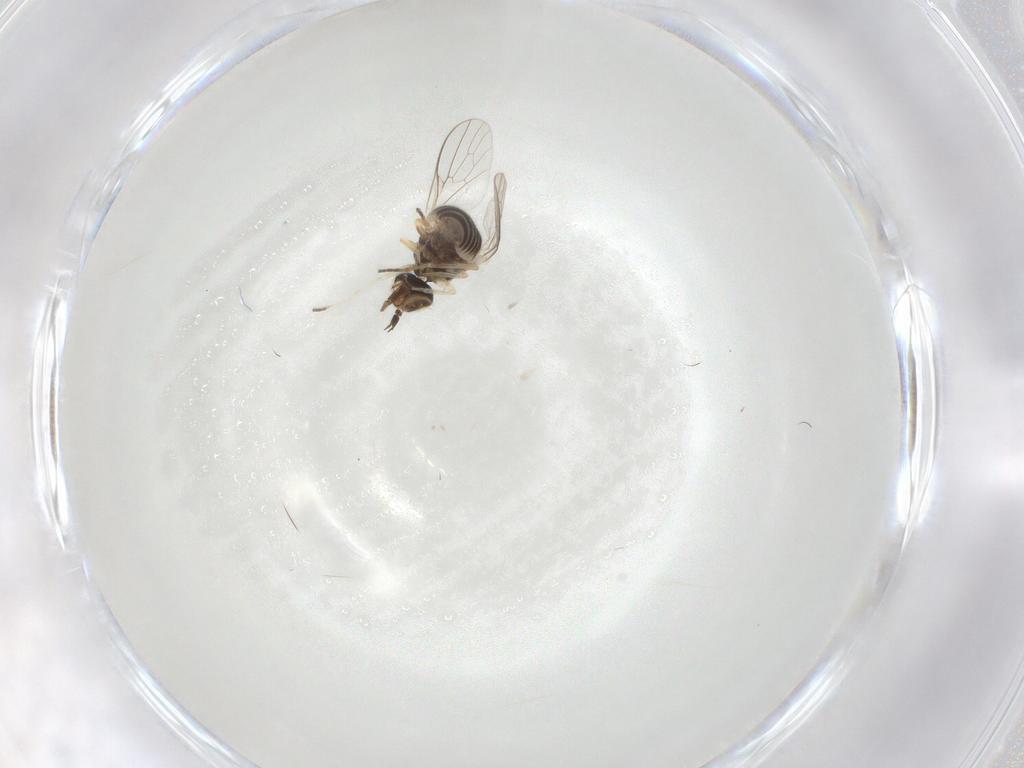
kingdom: Animalia
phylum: Arthropoda
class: Insecta
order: Diptera
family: Tachinidae
